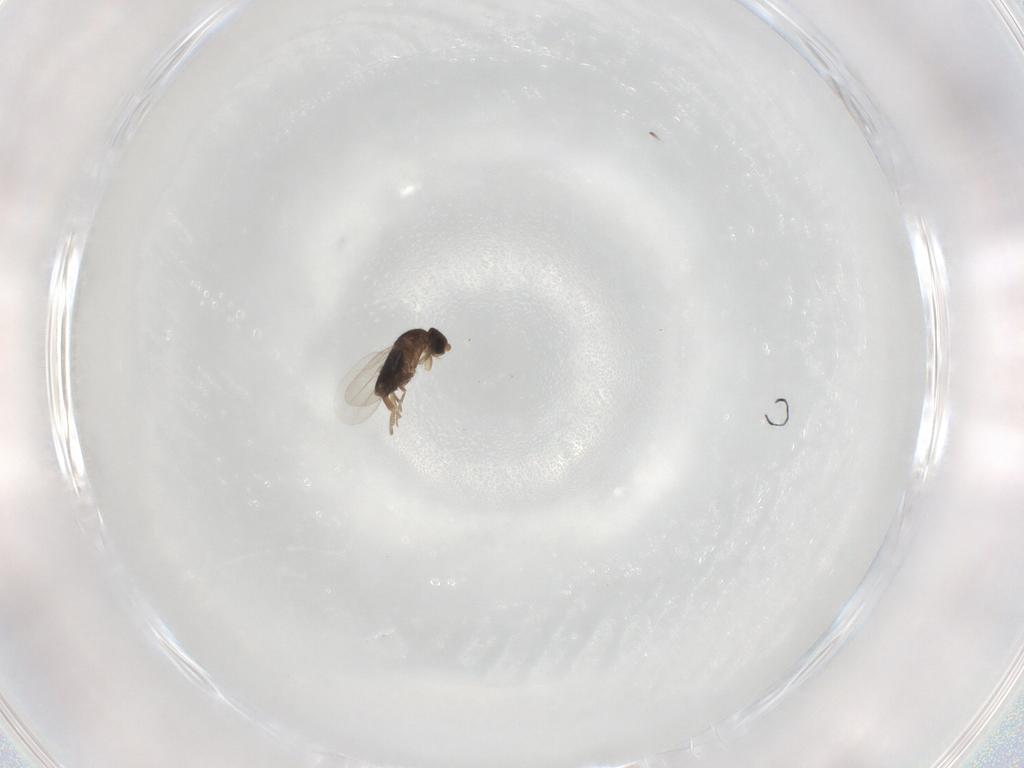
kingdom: Animalia
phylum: Arthropoda
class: Insecta
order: Diptera
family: Phoridae
